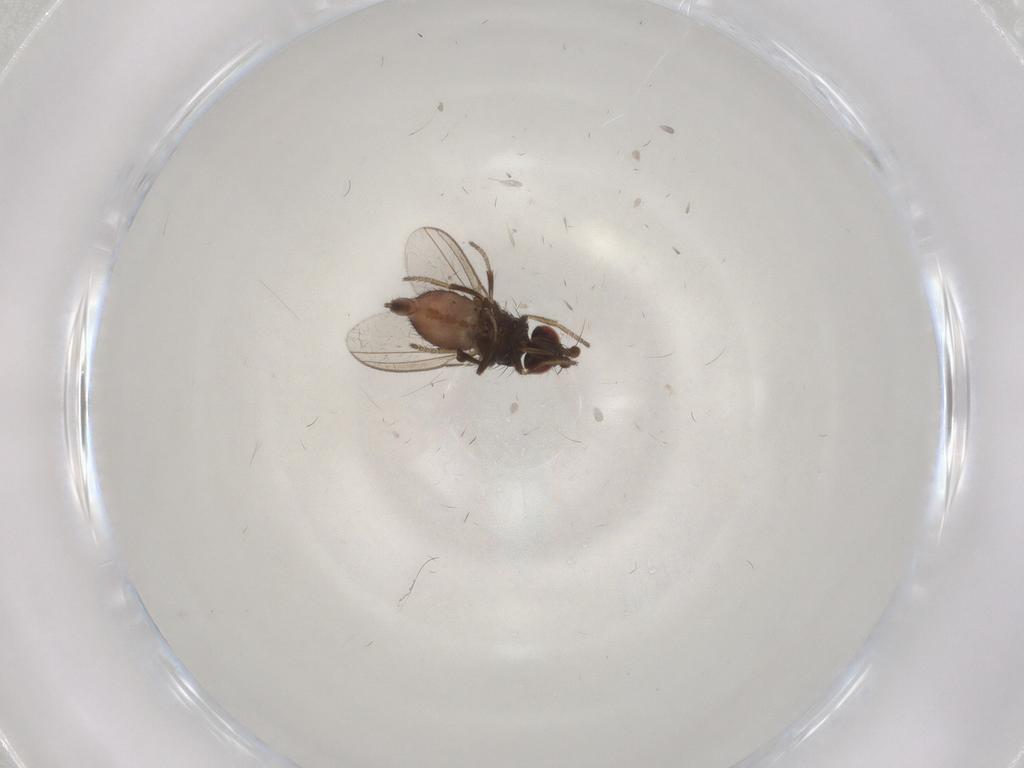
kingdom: Animalia
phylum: Arthropoda
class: Insecta
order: Diptera
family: Milichiidae
